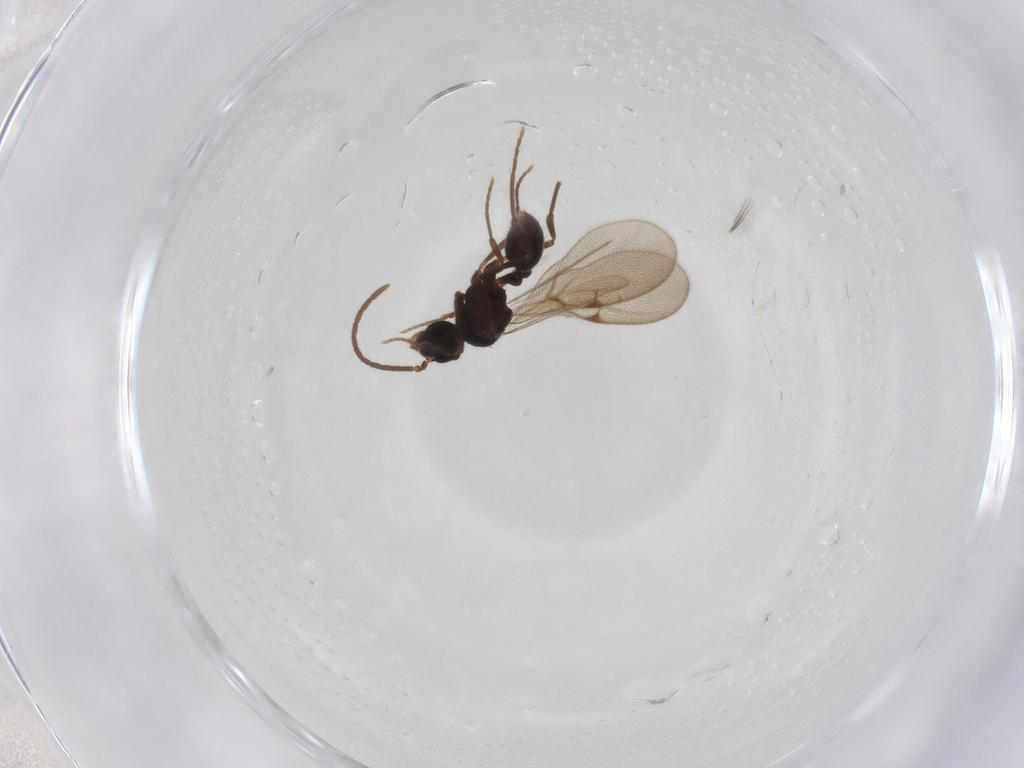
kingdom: Animalia
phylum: Arthropoda
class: Insecta
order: Hymenoptera
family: Formicidae
